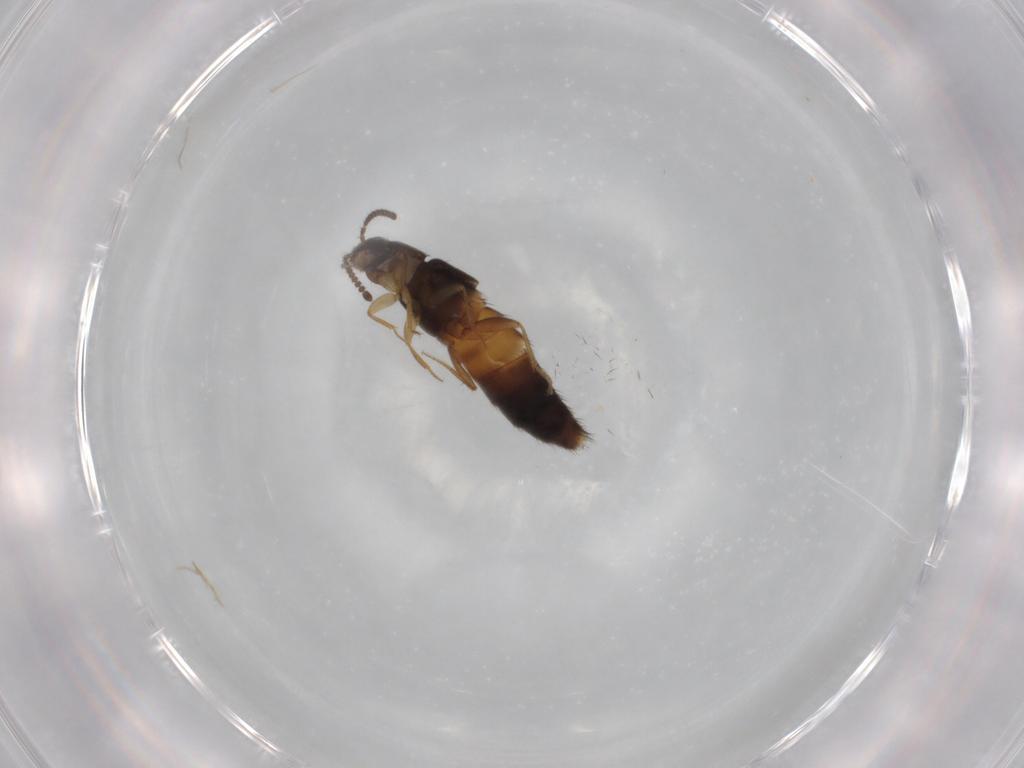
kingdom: Animalia
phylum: Arthropoda
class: Insecta
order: Coleoptera
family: Staphylinidae
